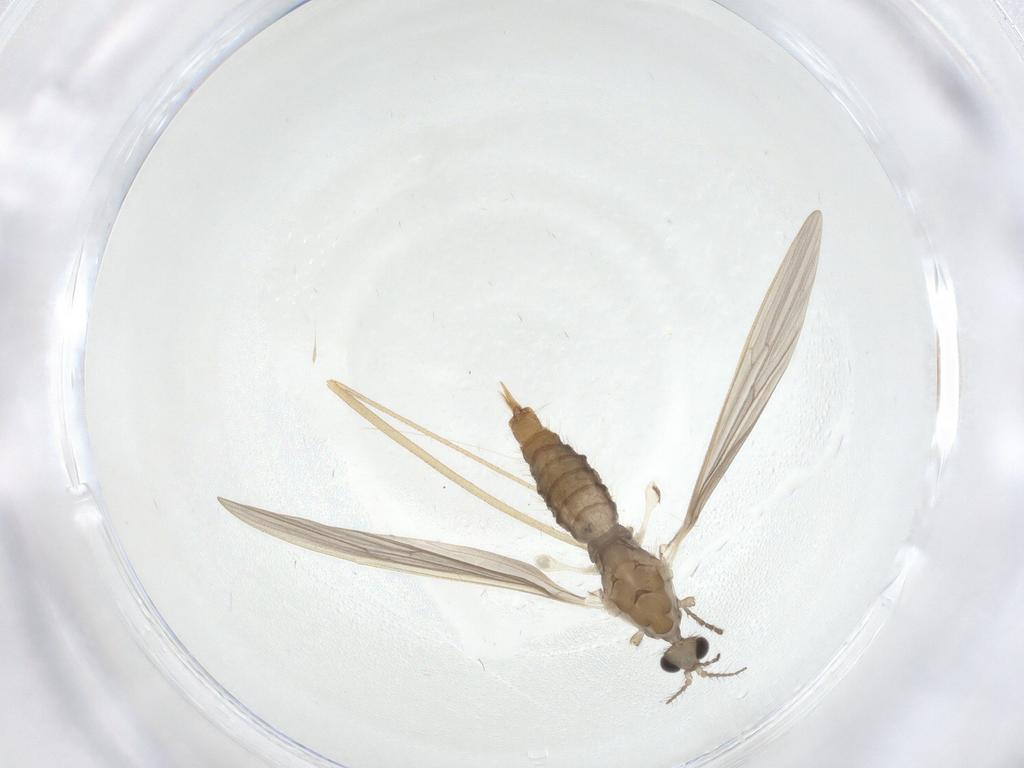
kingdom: Animalia
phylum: Arthropoda
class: Insecta
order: Diptera
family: Limoniidae
